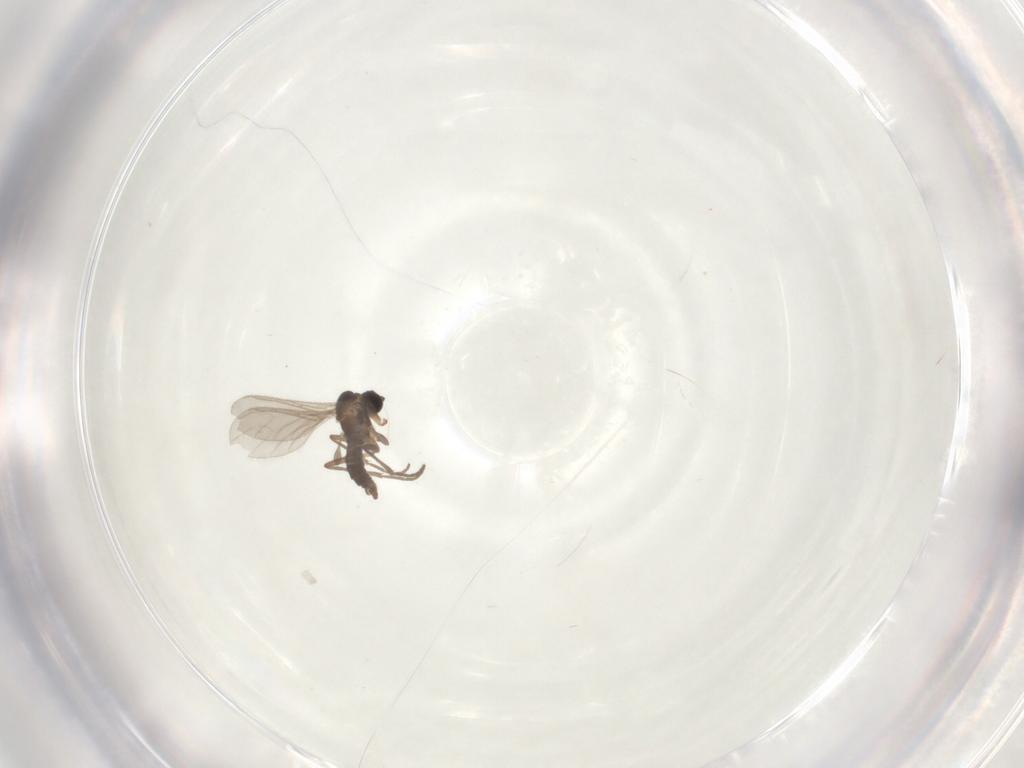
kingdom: Animalia
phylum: Arthropoda
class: Insecta
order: Diptera
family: Sciaridae
